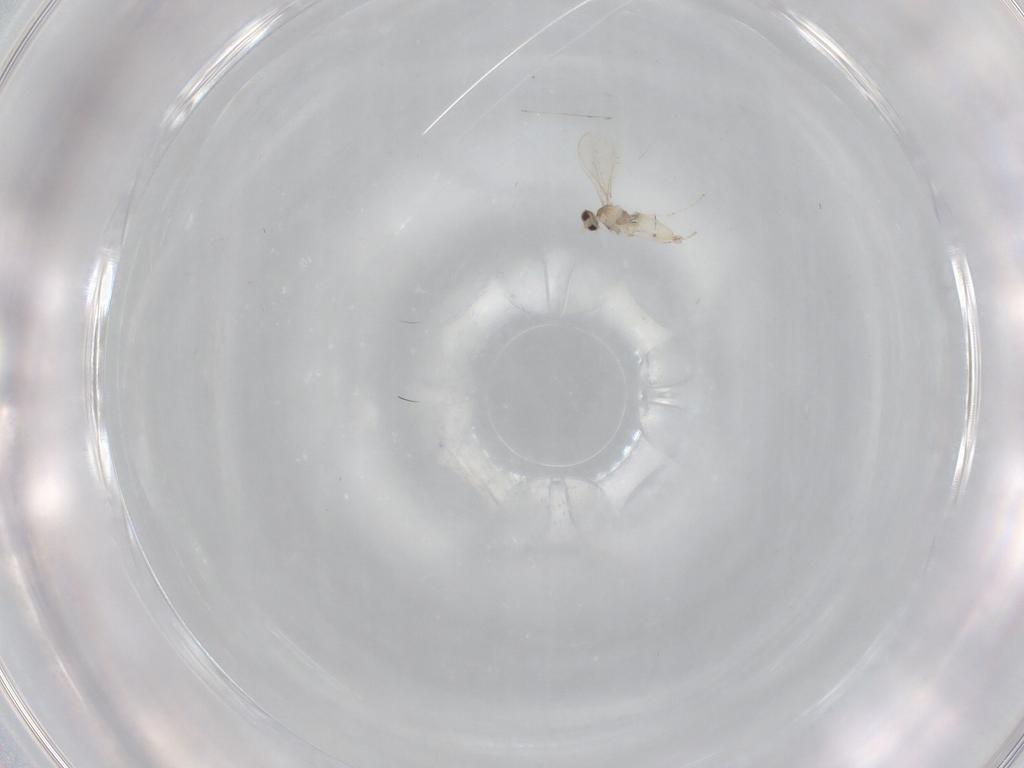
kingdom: Animalia
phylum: Arthropoda
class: Insecta
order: Diptera
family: Cecidomyiidae
